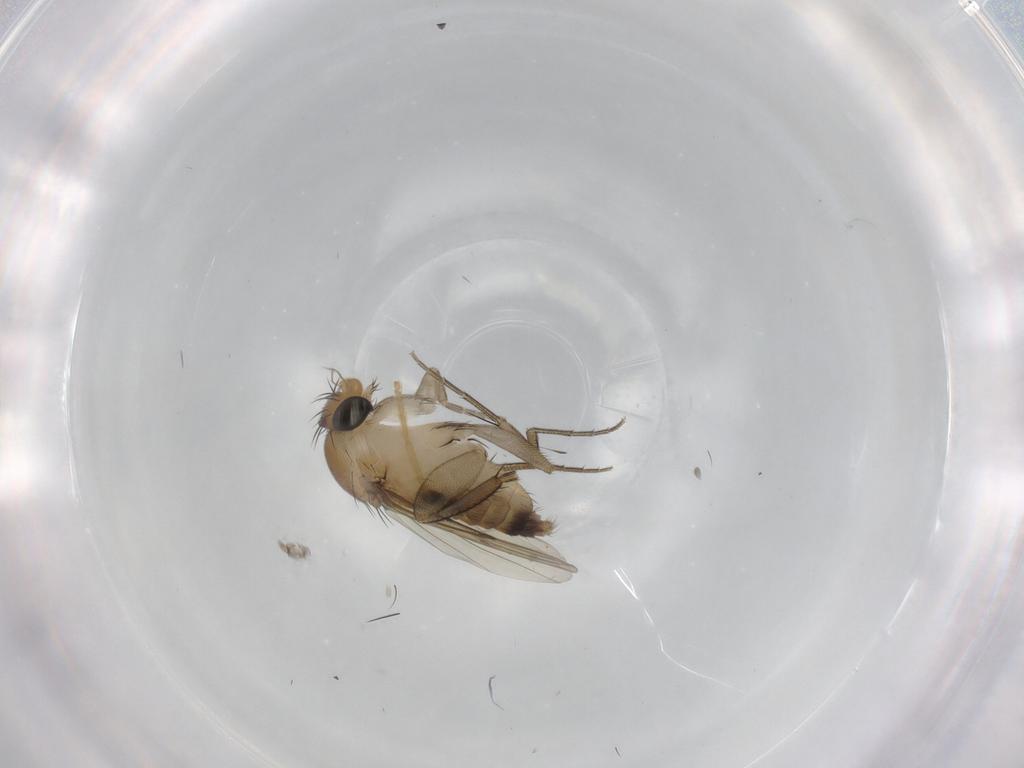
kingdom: Animalia
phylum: Arthropoda
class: Insecta
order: Diptera
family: Phoridae
